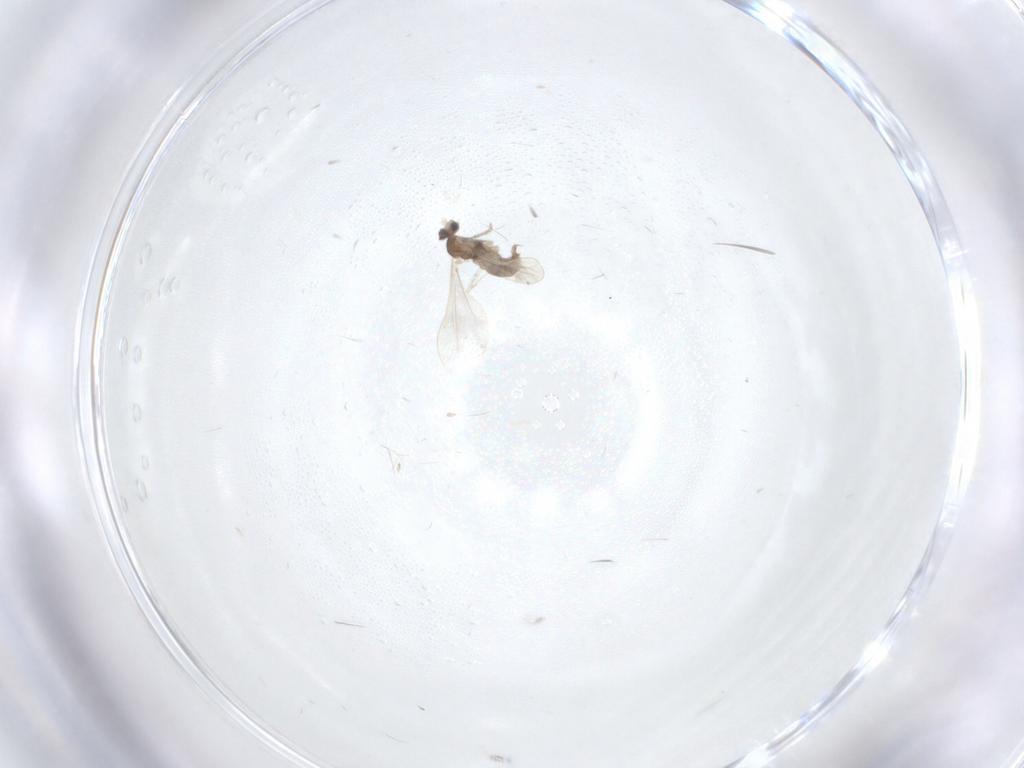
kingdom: Animalia
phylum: Arthropoda
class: Insecta
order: Diptera
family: Cecidomyiidae
